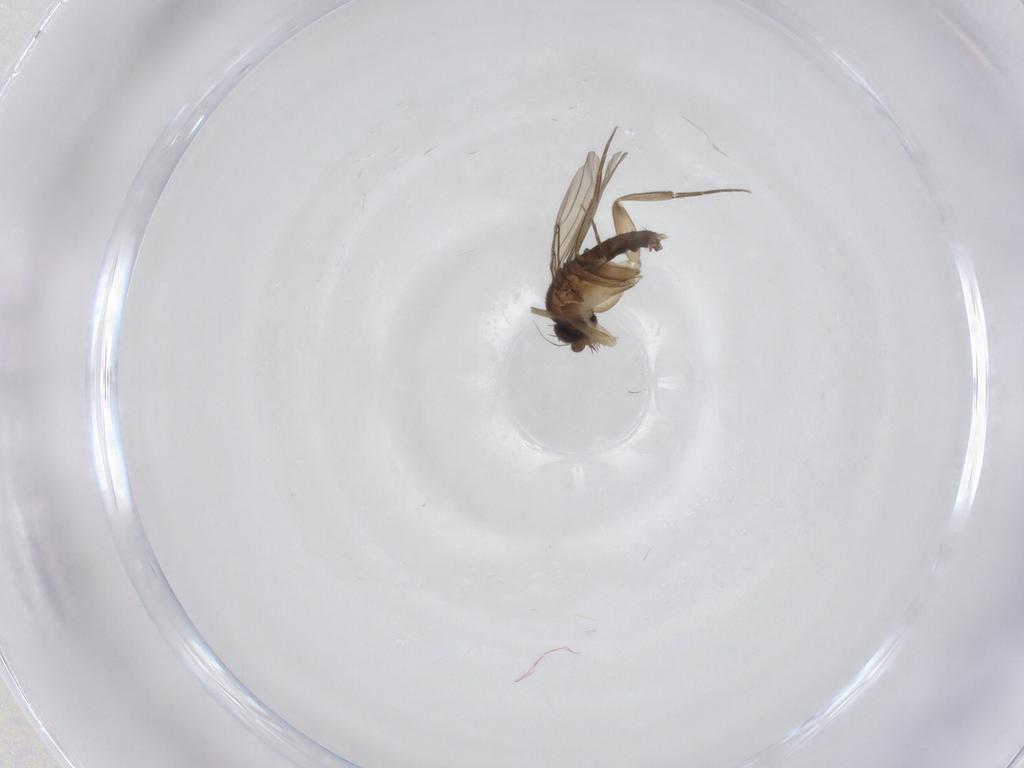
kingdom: Animalia
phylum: Arthropoda
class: Insecta
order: Diptera
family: Phoridae
